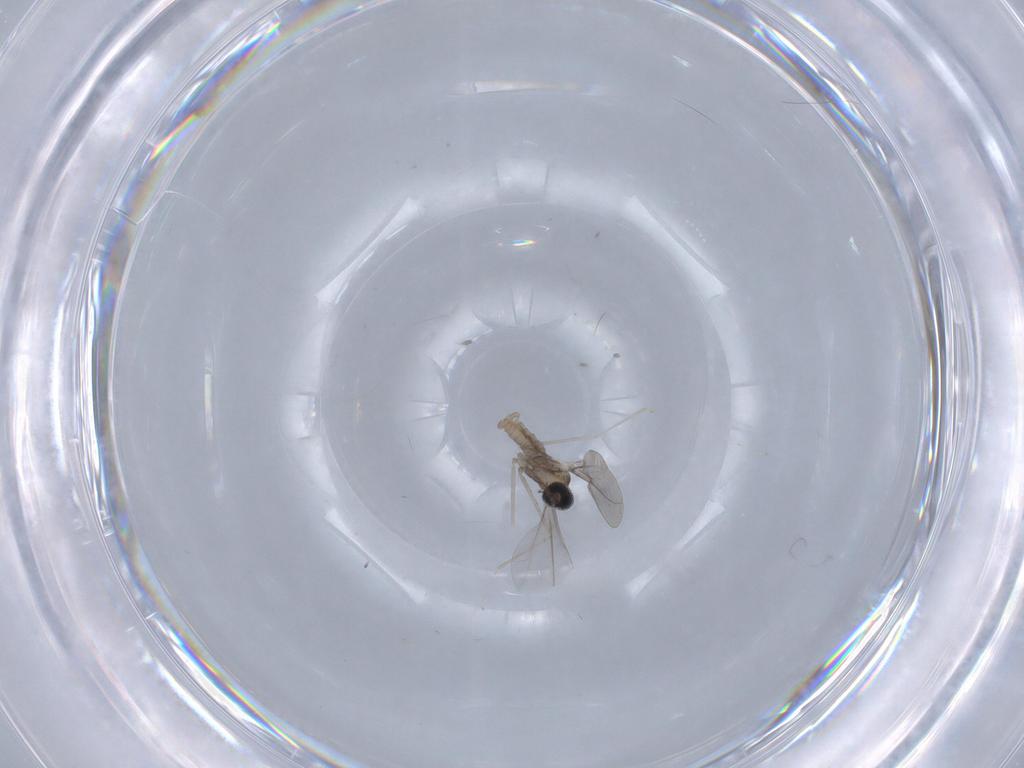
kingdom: Animalia
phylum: Arthropoda
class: Insecta
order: Diptera
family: Cecidomyiidae
